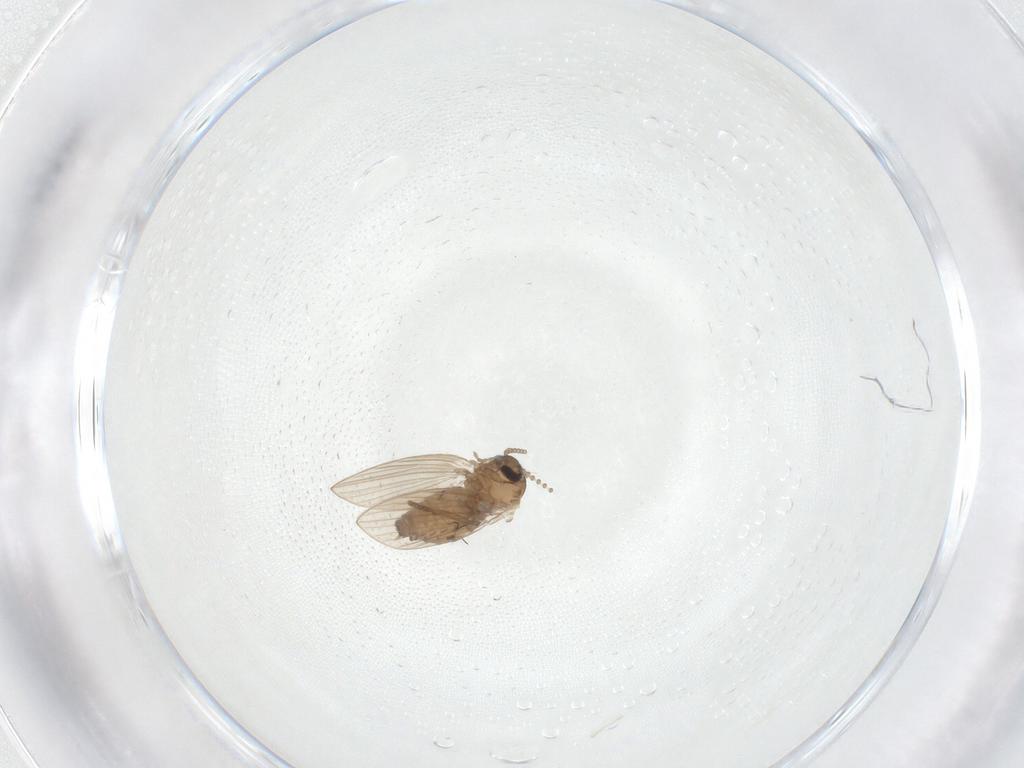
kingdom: Animalia
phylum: Arthropoda
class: Insecta
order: Diptera
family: Psychodidae
